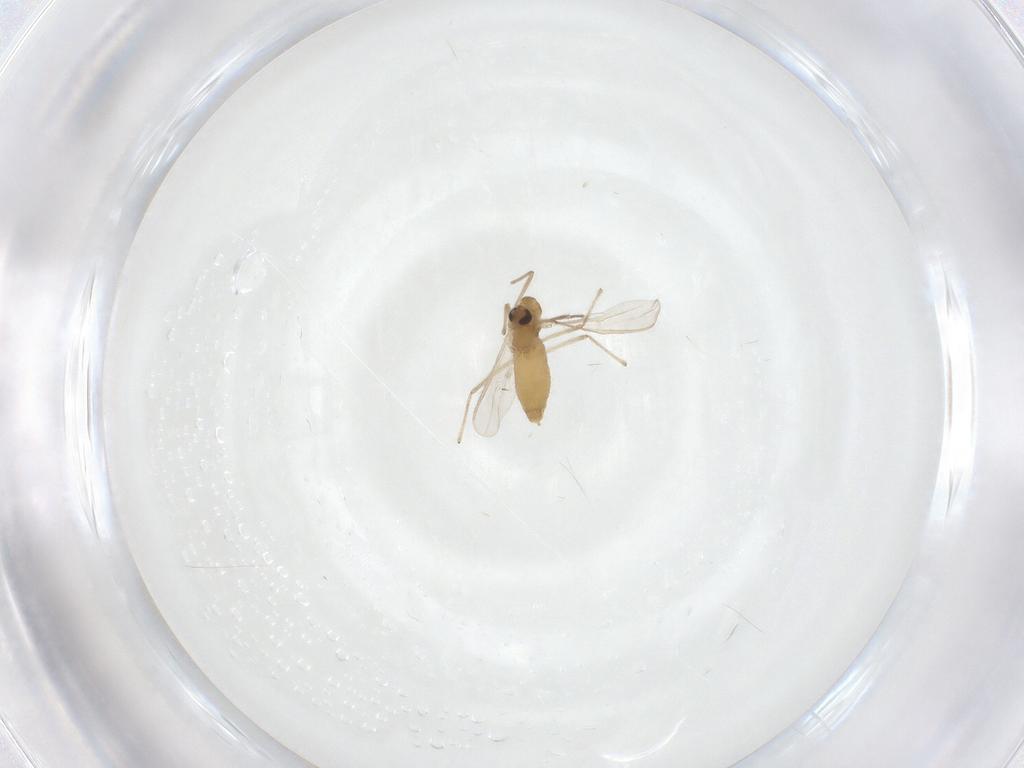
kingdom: Animalia
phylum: Arthropoda
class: Insecta
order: Diptera
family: Chironomidae
